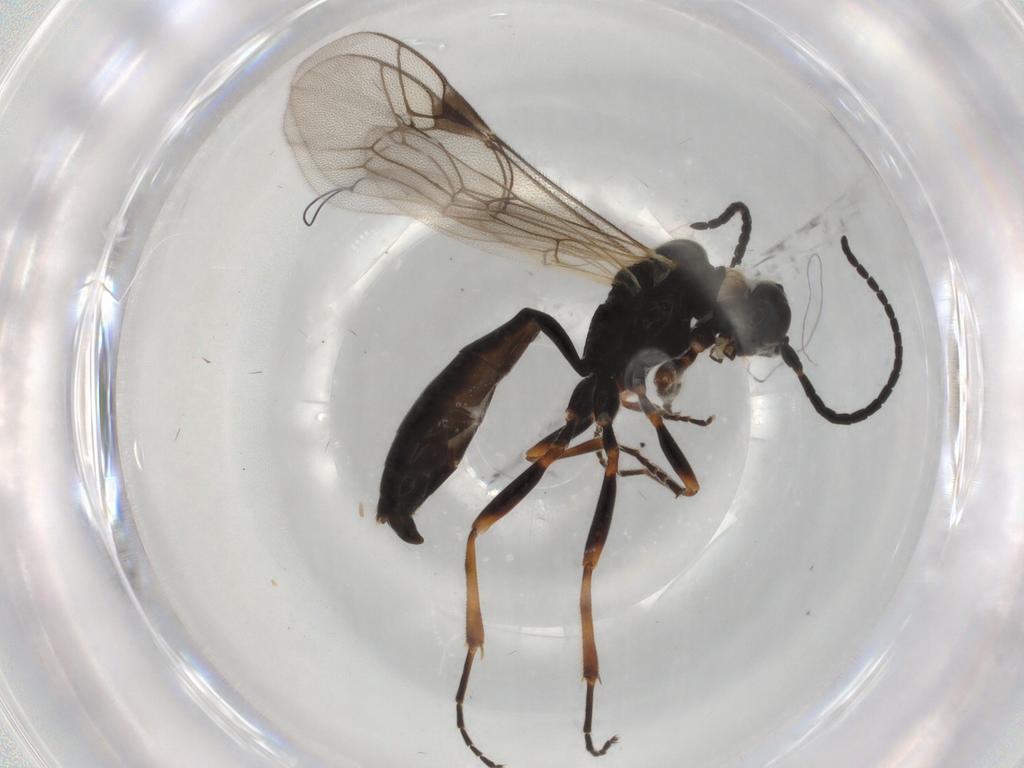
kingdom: Animalia
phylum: Arthropoda
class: Insecta
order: Hymenoptera
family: Ichneumonidae
